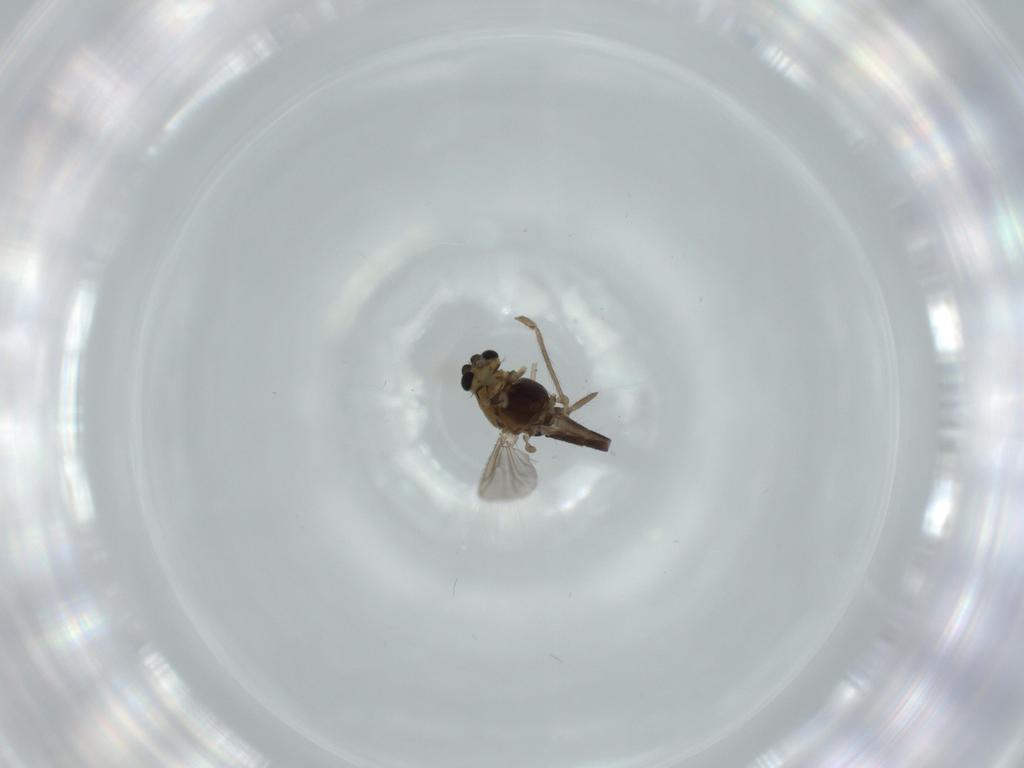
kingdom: Animalia
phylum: Arthropoda
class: Insecta
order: Diptera
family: Chironomidae
